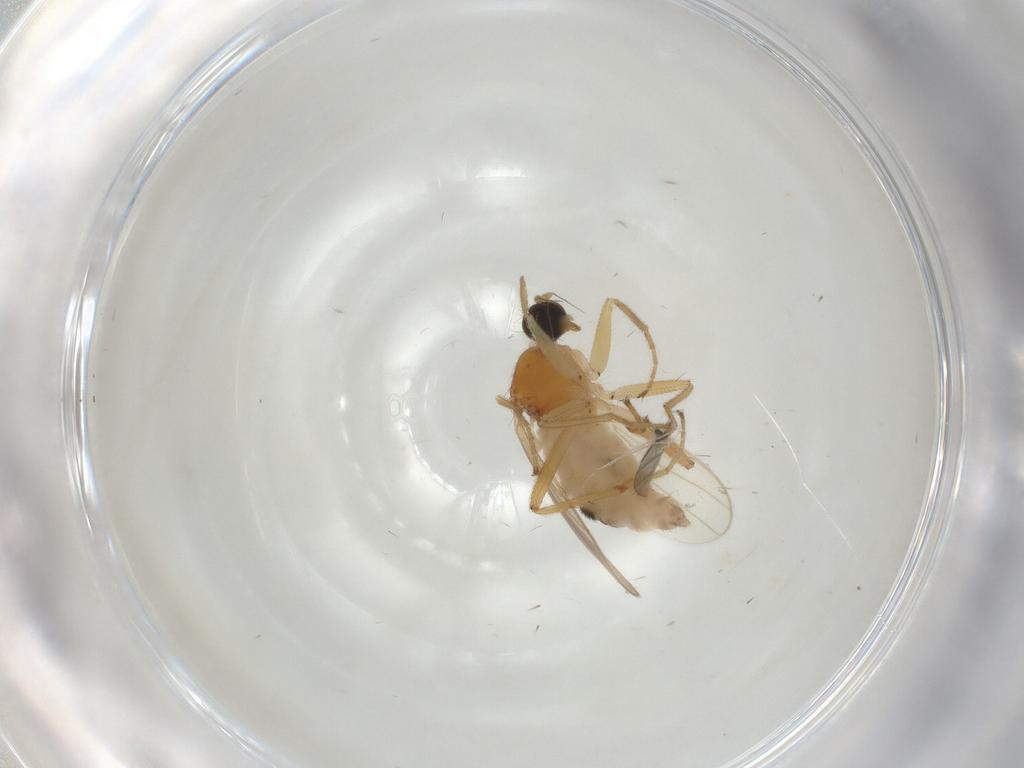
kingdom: Animalia
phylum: Arthropoda
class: Insecta
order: Diptera
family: Hybotidae
